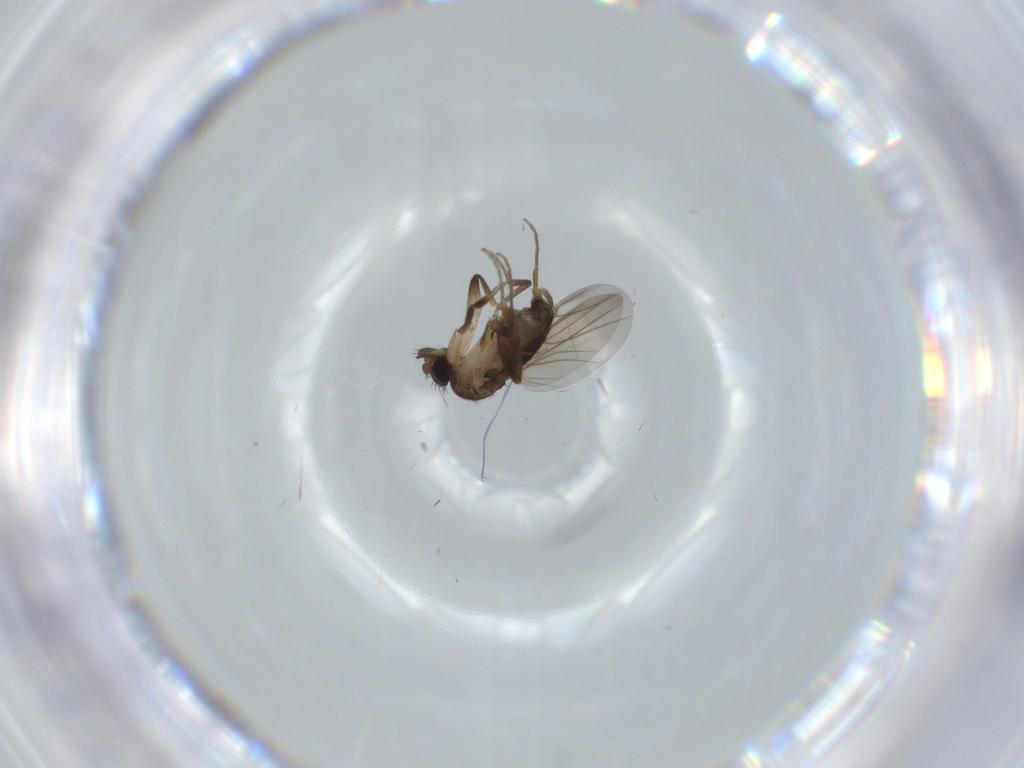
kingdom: Animalia
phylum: Arthropoda
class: Insecta
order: Diptera
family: Phoridae
